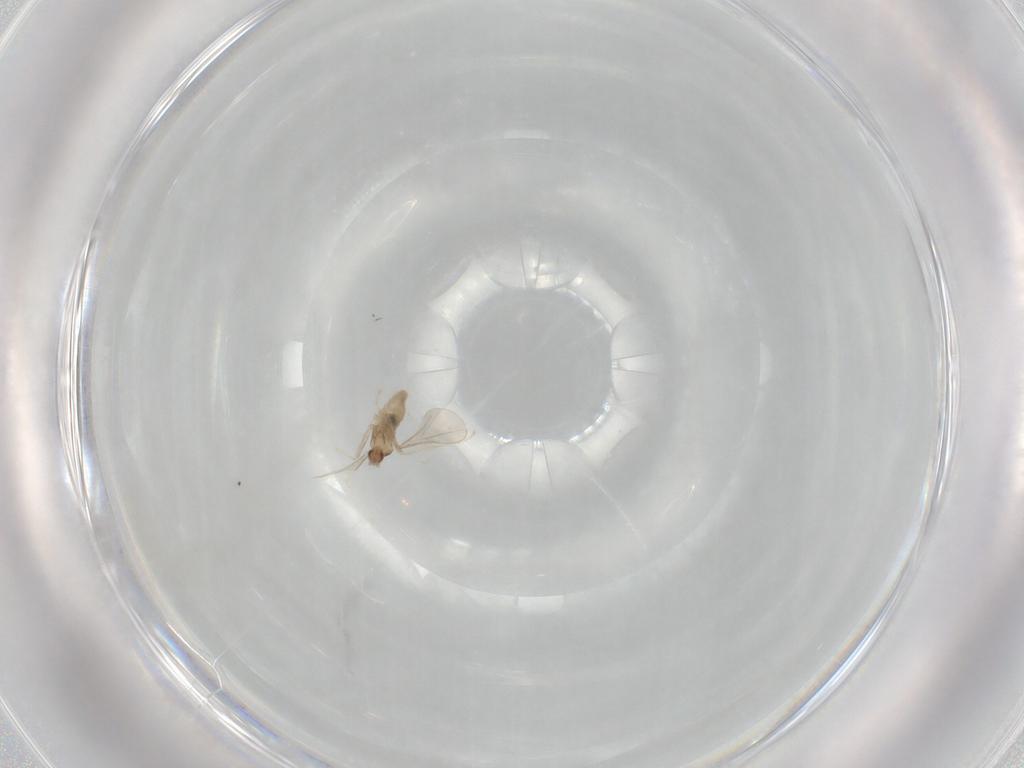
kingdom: Animalia
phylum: Arthropoda
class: Insecta
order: Diptera
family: Cecidomyiidae
